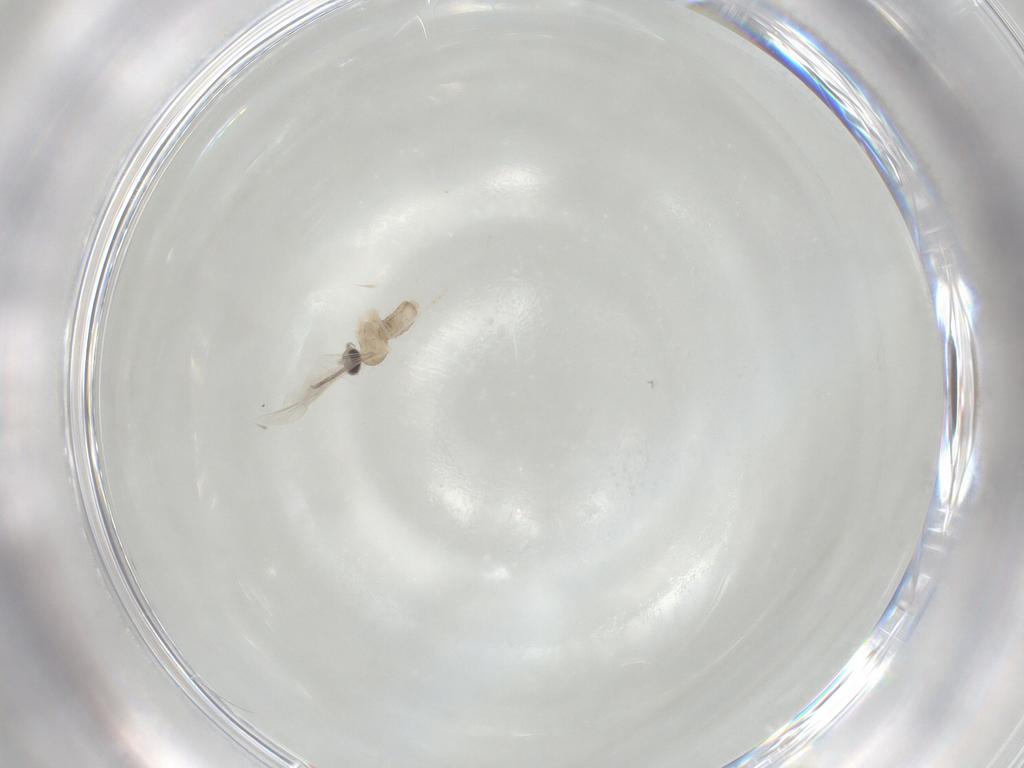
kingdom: Animalia
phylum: Arthropoda
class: Insecta
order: Diptera
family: Cecidomyiidae
